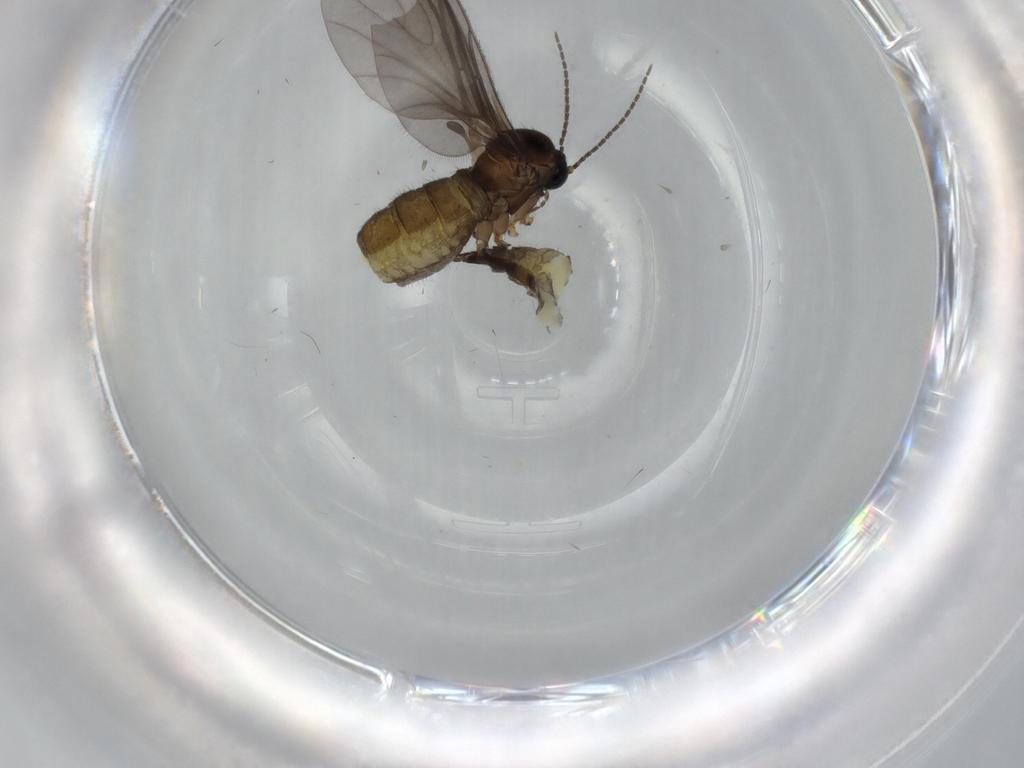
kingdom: Animalia
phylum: Arthropoda
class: Insecta
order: Diptera
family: Sciaridae
